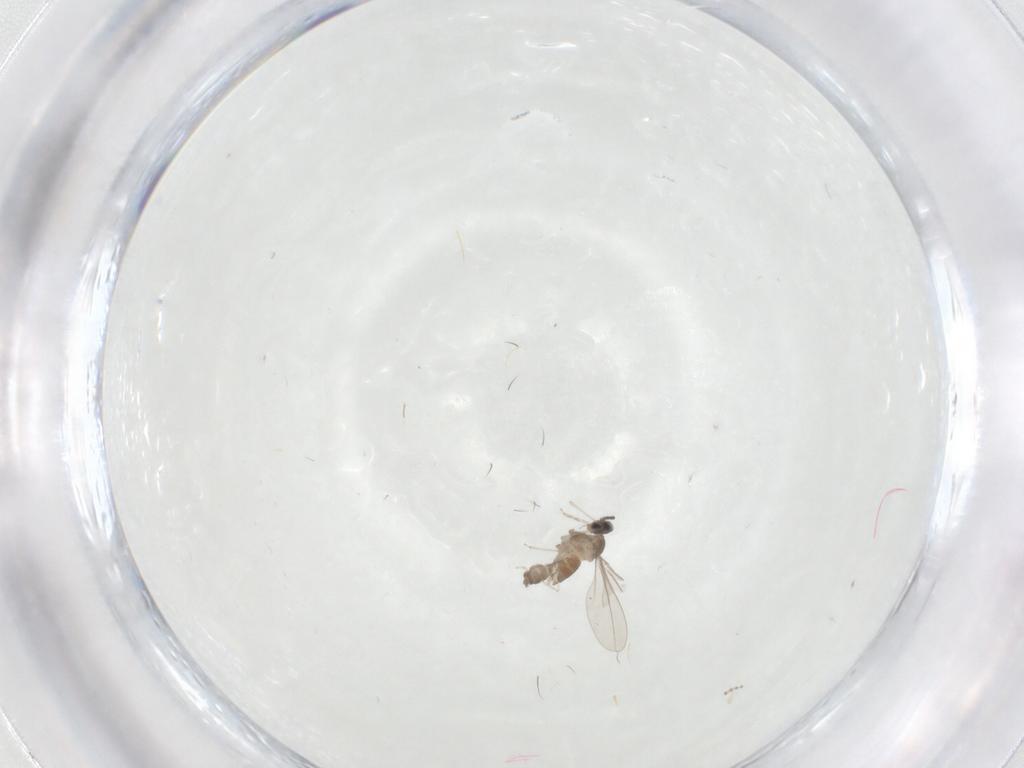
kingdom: Animalia
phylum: Arthropoda
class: Insecta
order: Diptera
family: Cecidomyiidae
